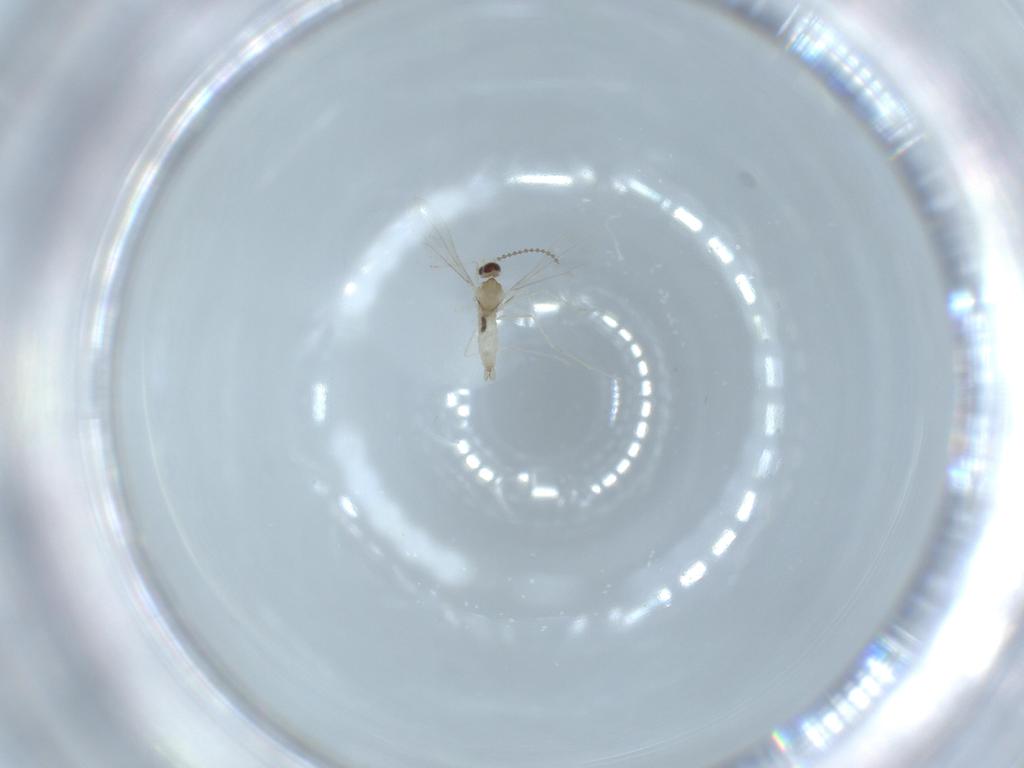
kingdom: Animalia
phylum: Arthropoda
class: Insecta
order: Diptera
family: Cecidomyiidae
